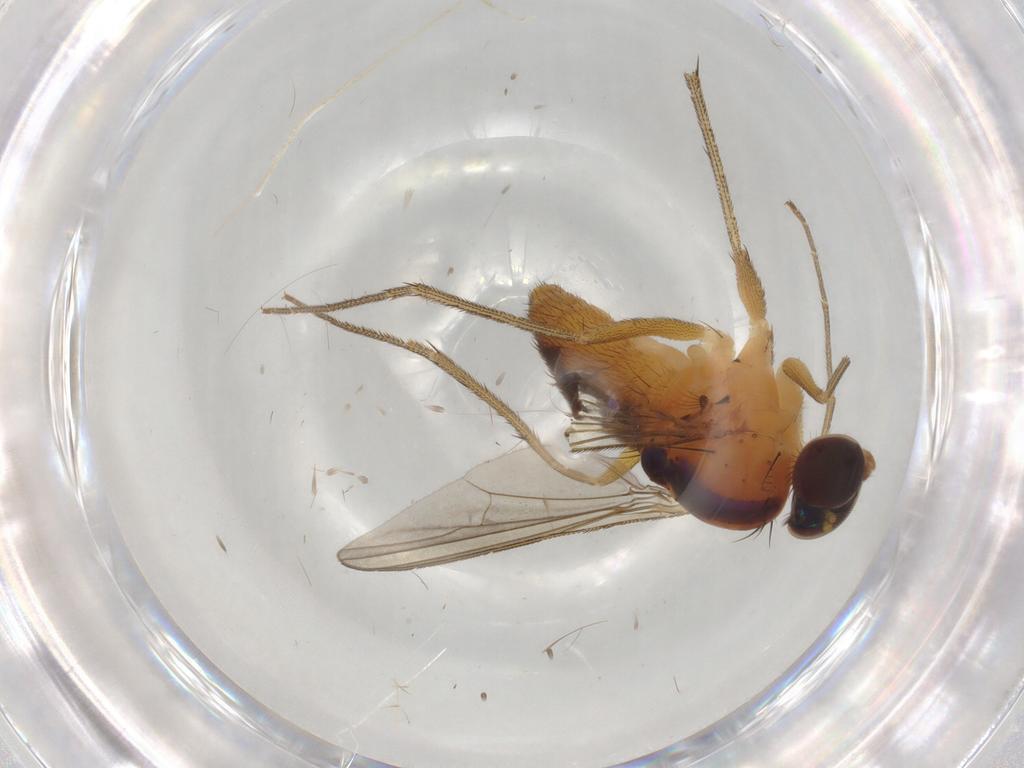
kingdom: Animalia
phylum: Arthropoda
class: Insecta
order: Diptera
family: Dolichopodidae
